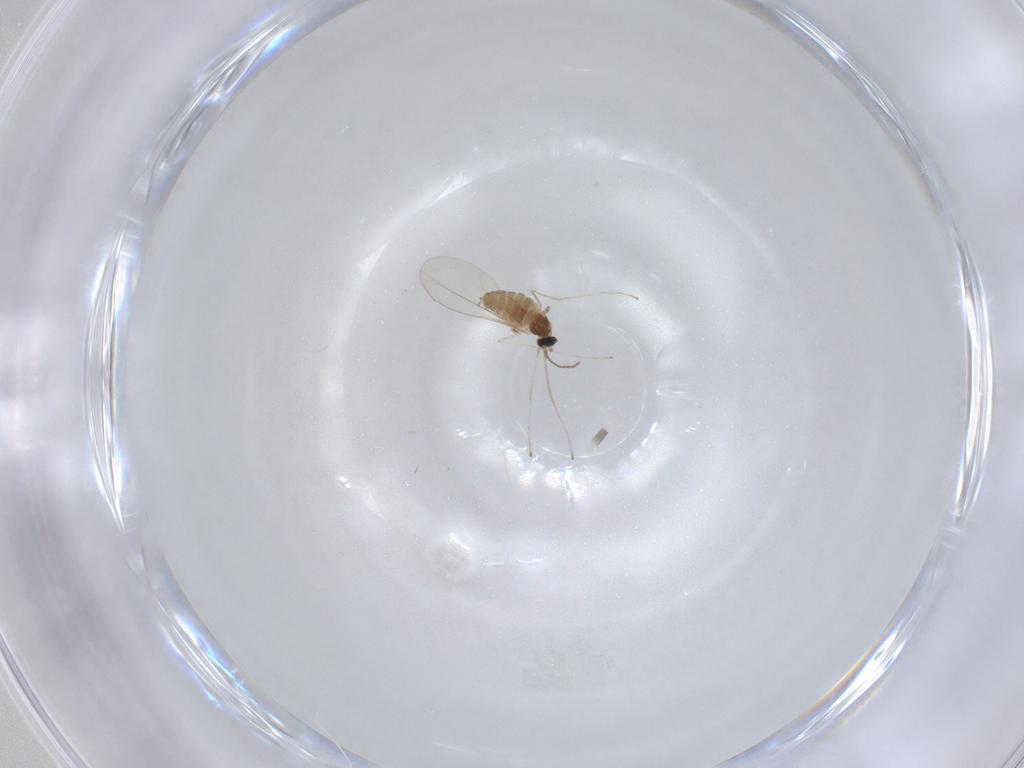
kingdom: Animalia
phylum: Arthropoda
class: Insecta
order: Diptera
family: Cecidomyiidae
